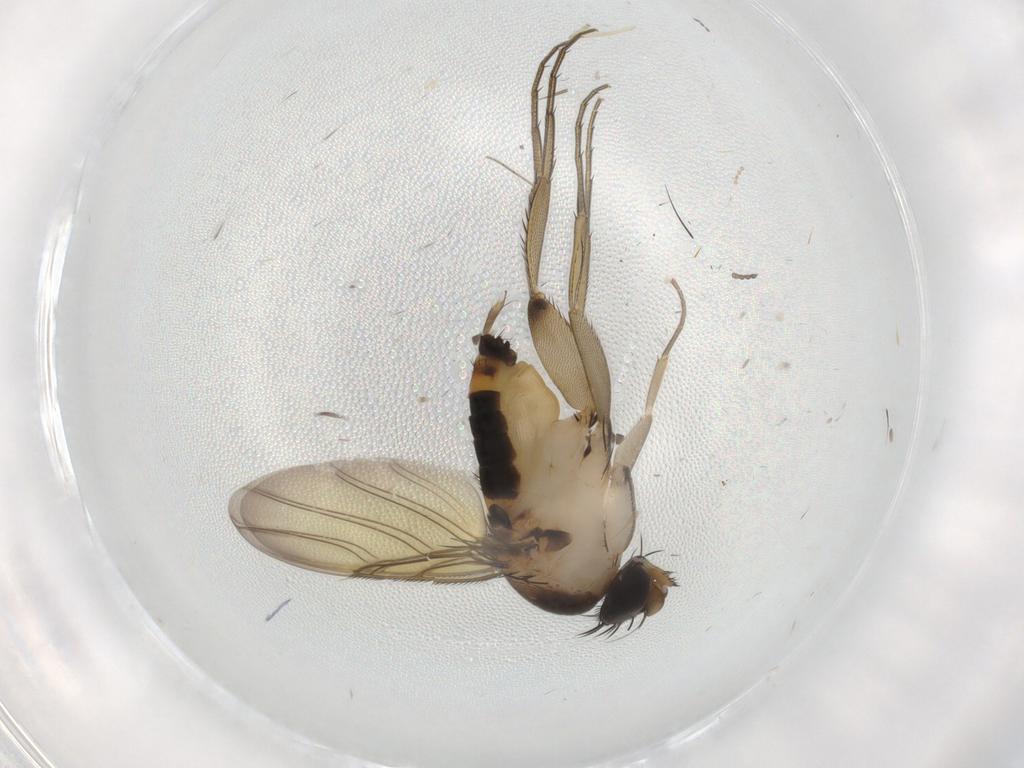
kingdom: Animalia
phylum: Arthropoda
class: Insecta
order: Diptera
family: Phoridae
